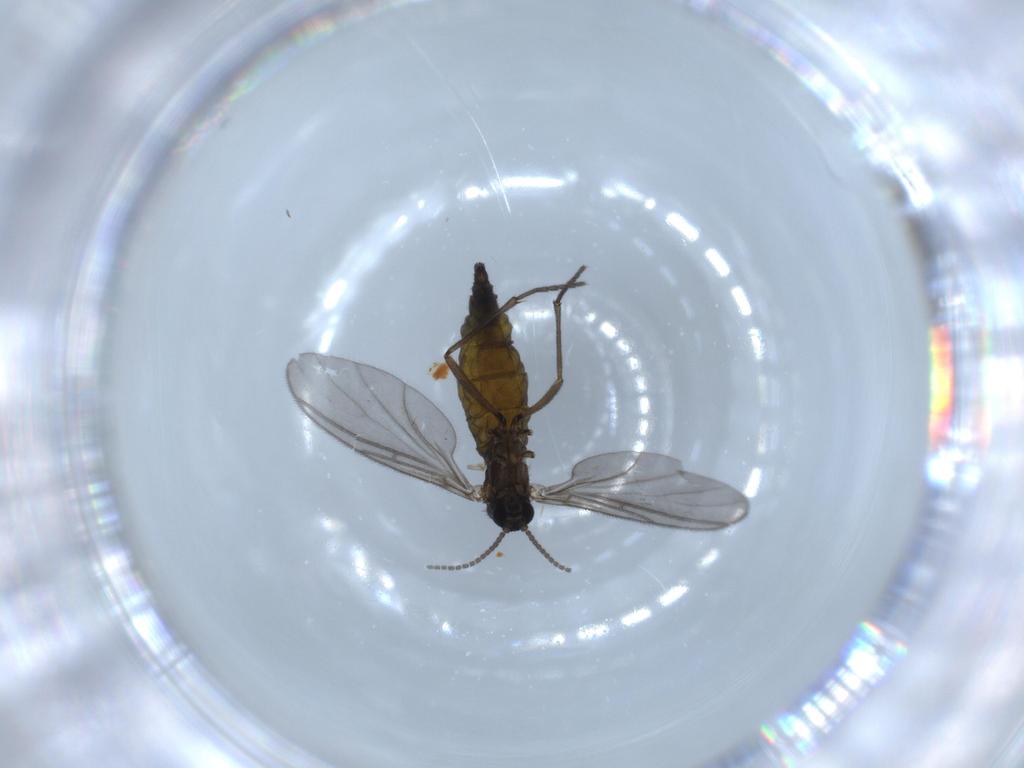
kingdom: Animalia
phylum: Arthropoda
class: Insecta
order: Diptera
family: Sciaridae
